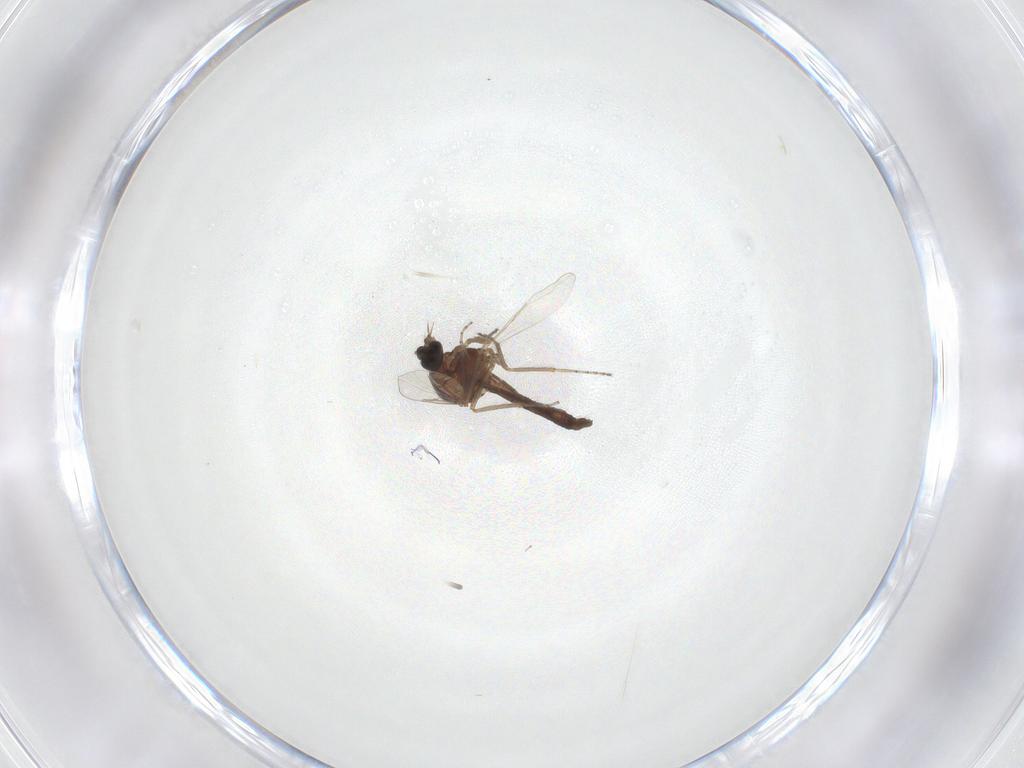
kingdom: Animalia
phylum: Arthropoda
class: Insecta
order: Diptera
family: Ceratopogonidae
